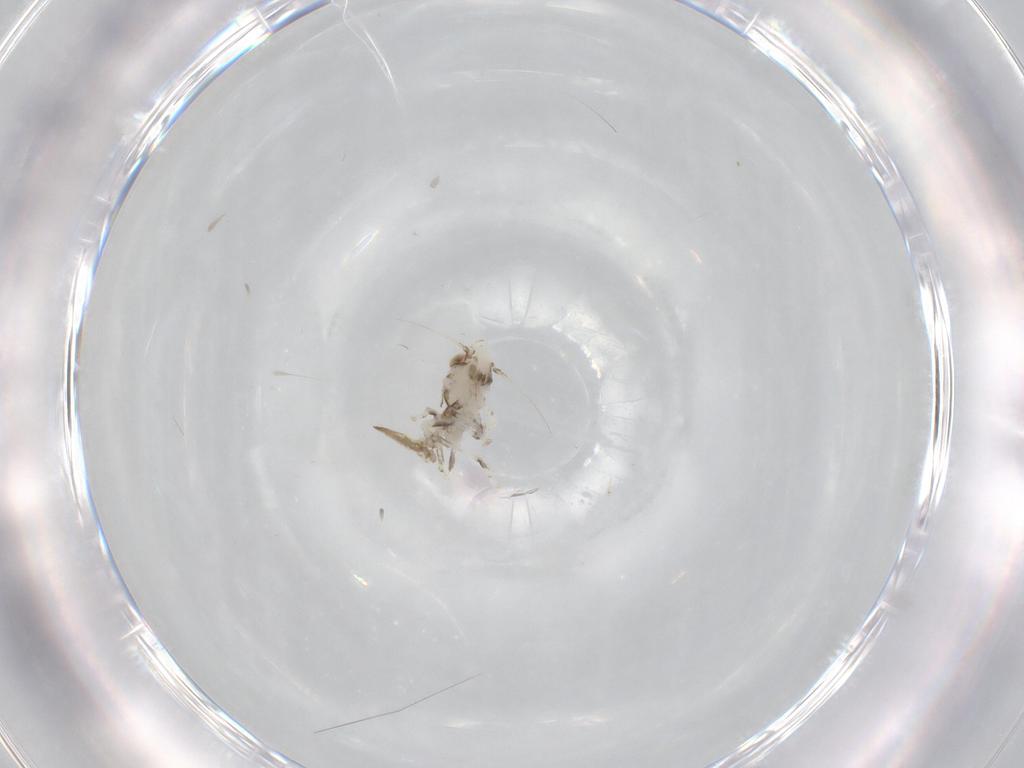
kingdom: Animalia
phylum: Arthropoda
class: Insecta
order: Hemiptera
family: Cicadellidae
